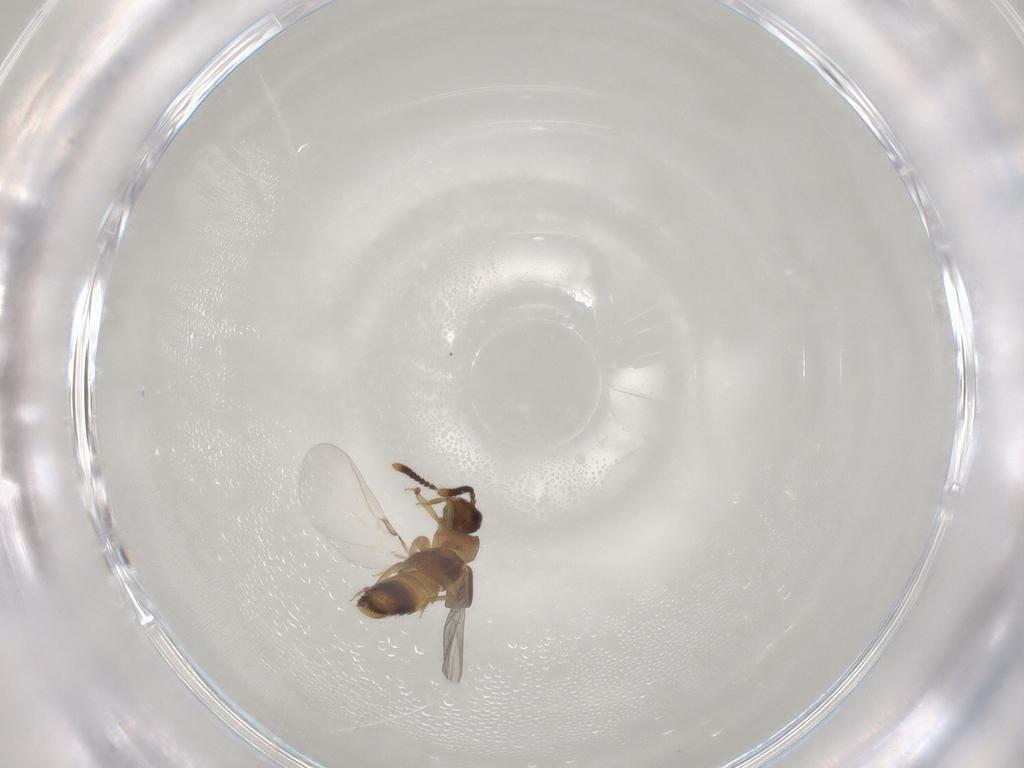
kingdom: Animalia
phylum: Arthropoda
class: Insecta
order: Coleoptera
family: Staphylinidae
